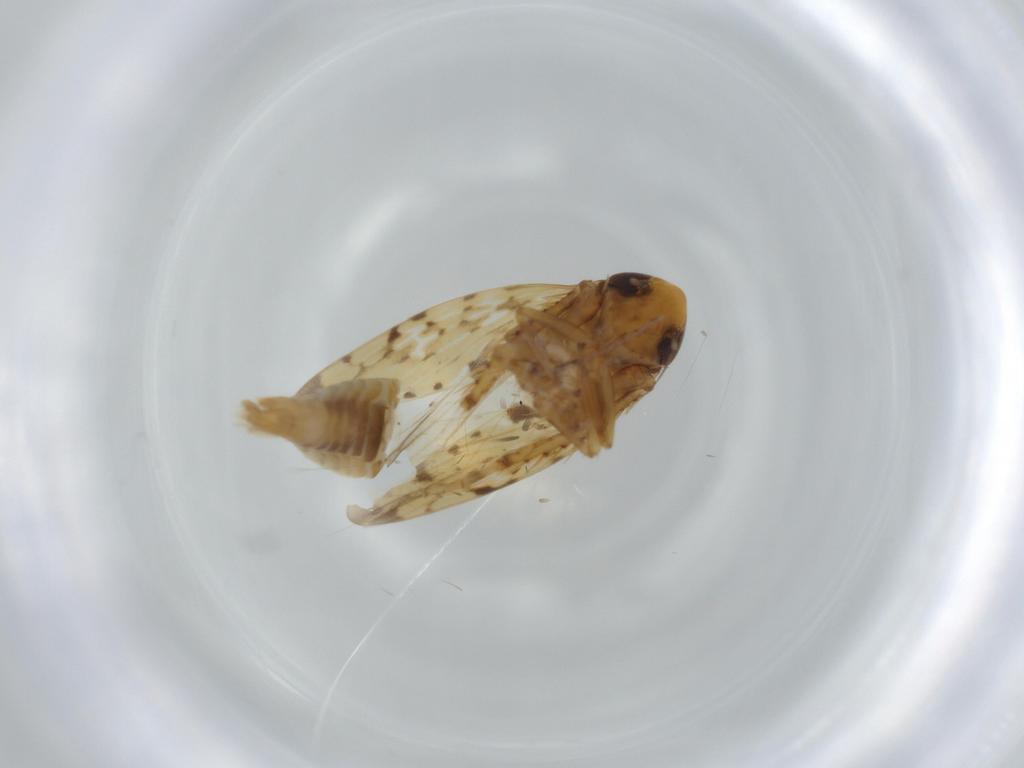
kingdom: Animalia
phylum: Arthropoda
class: Insecta
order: Hemiptera
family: Cicadellidae
